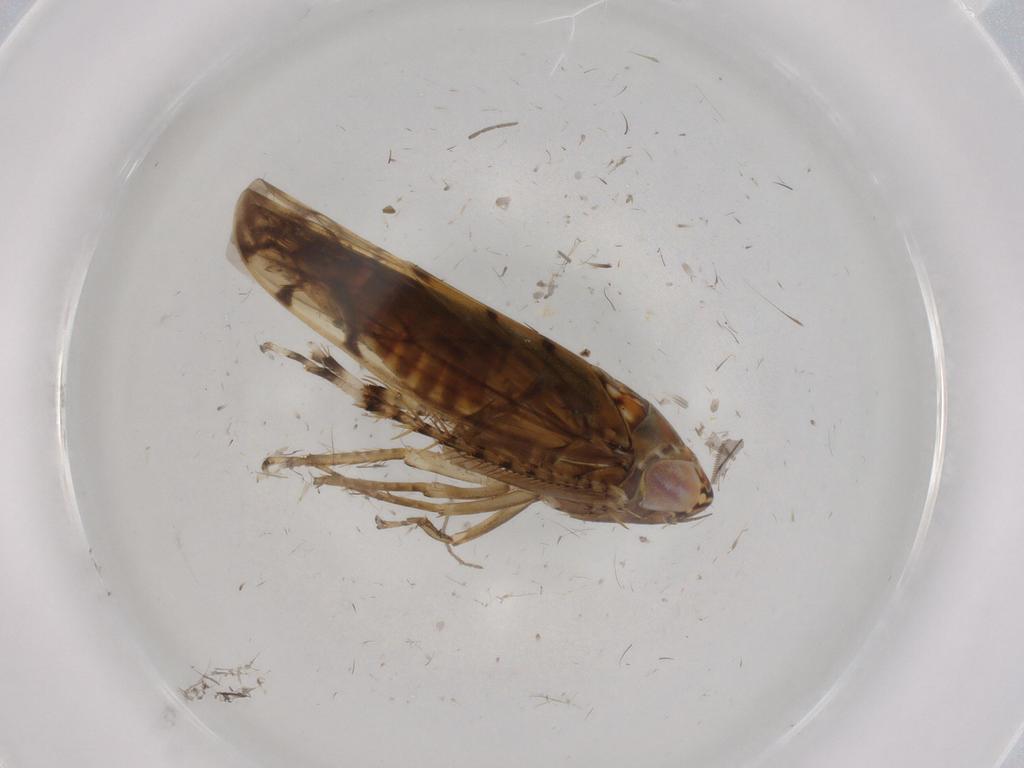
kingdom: Animalia
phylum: Arthropoda
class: Insecta
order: Hemiptera
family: Cicadellidae
